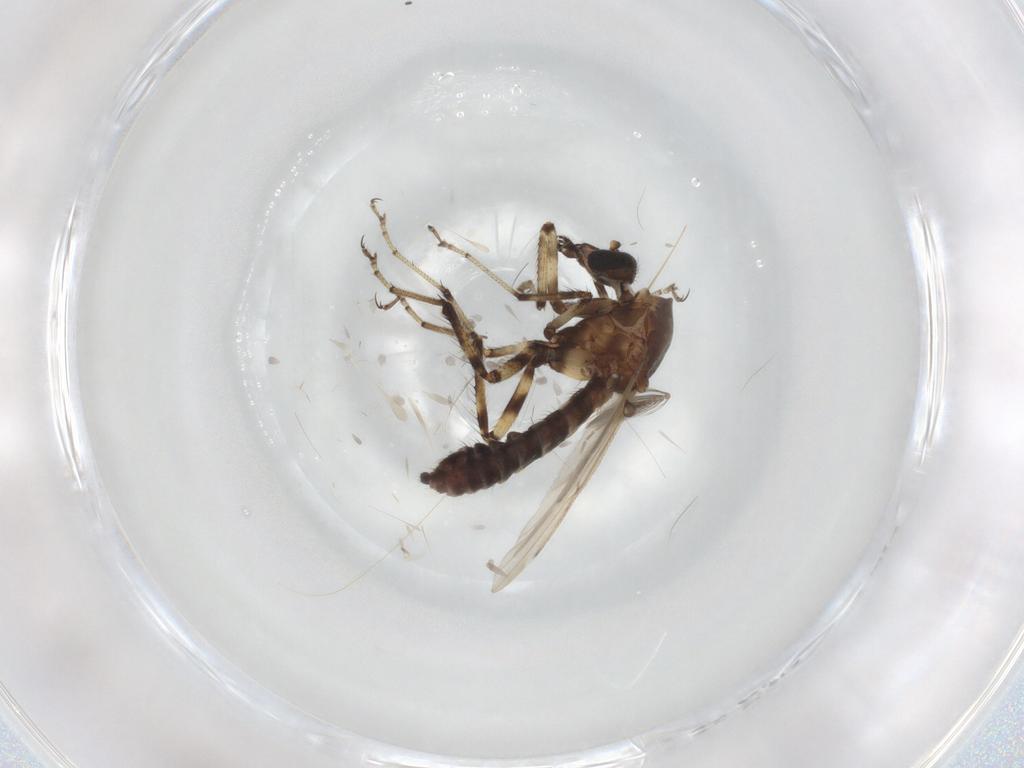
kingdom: Animalia
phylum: Arthropoda
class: Insecta
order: Diptera
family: Ceratopogonidae
